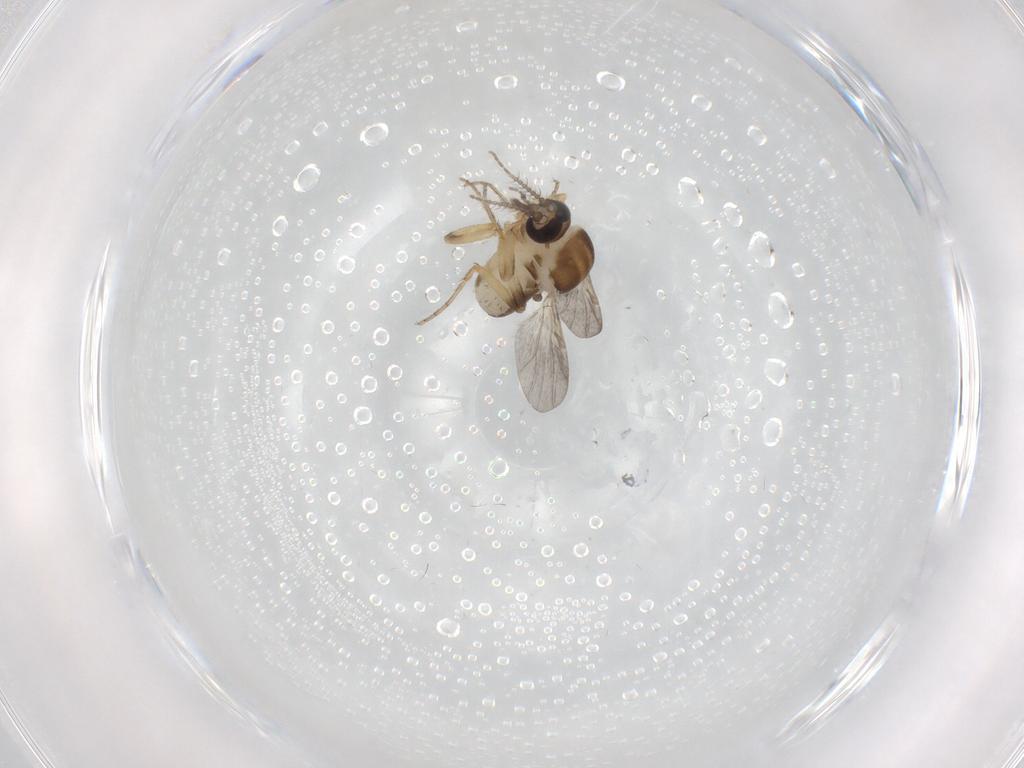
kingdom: Animalia
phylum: Arthropoda
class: Insecta
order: Diptera
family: Ceratopogonidae
